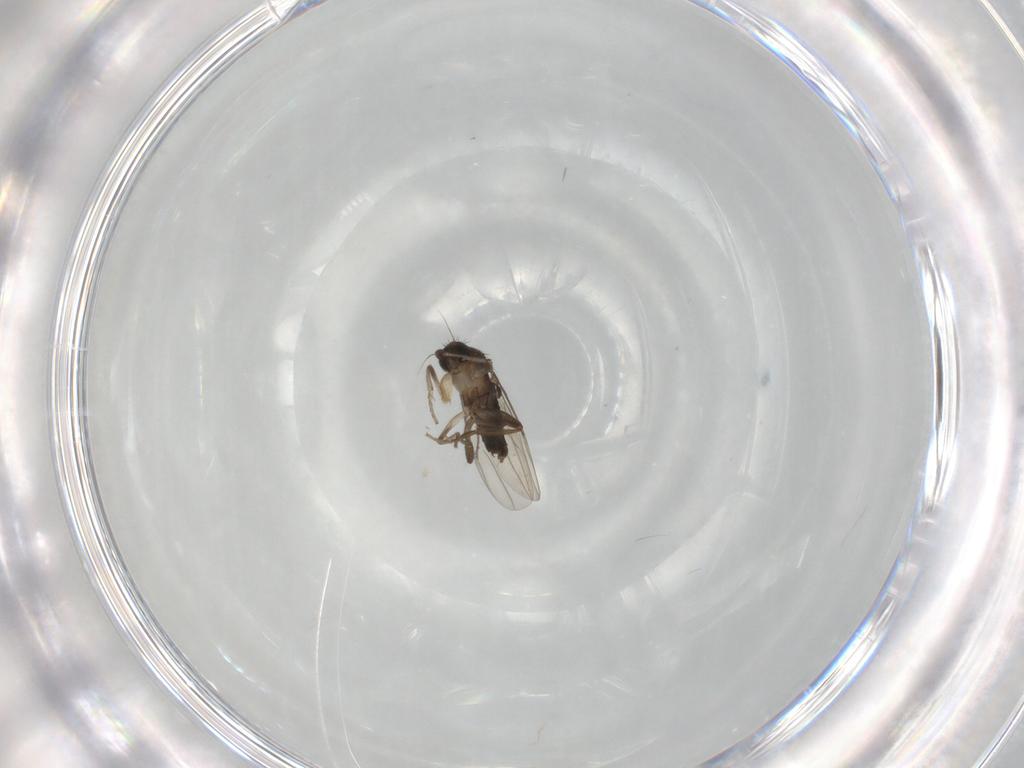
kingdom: Animalia
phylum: Arthropoda
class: Insecta
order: Diptera
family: Phoridae
